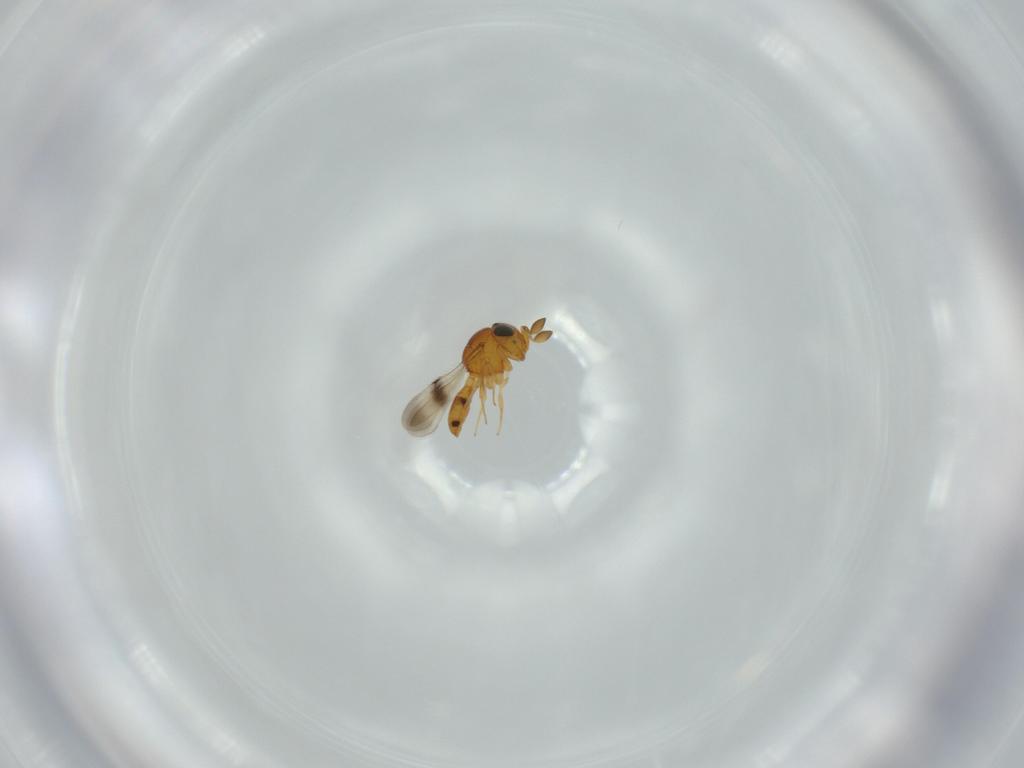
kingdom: Animalia
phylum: Arthropoda
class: Insecta
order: Hymenoptera
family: Scelionidae
